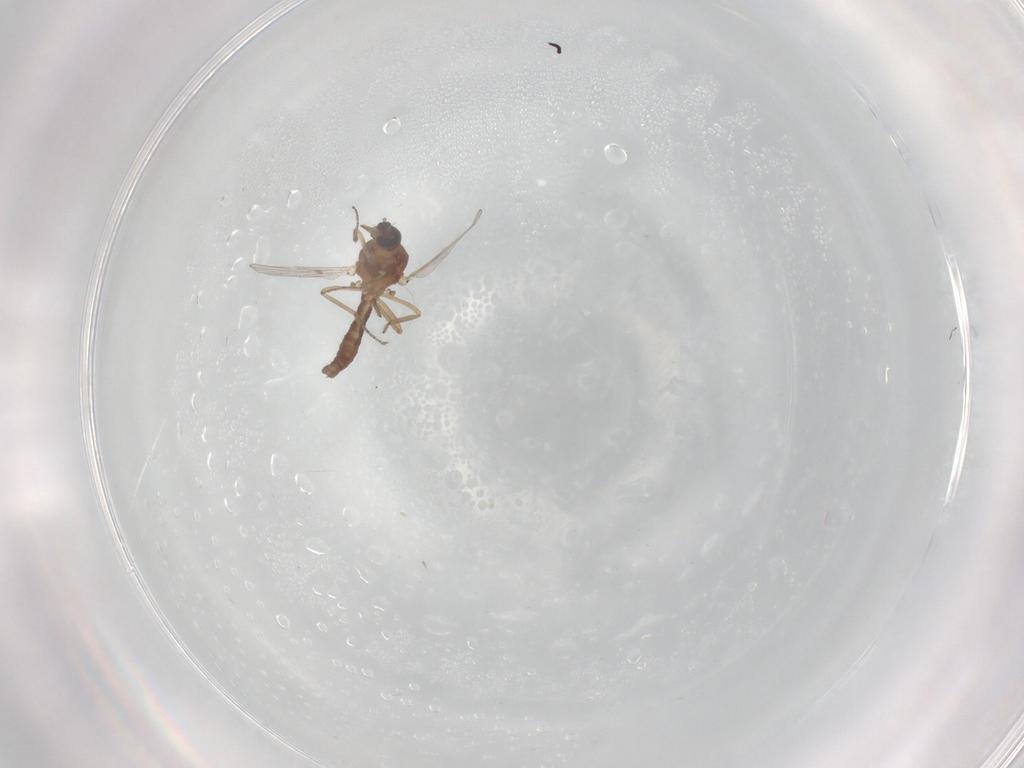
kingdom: Animalia
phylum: Arthropoda
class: Insecta
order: Diptera
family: Ceratopogonidae
